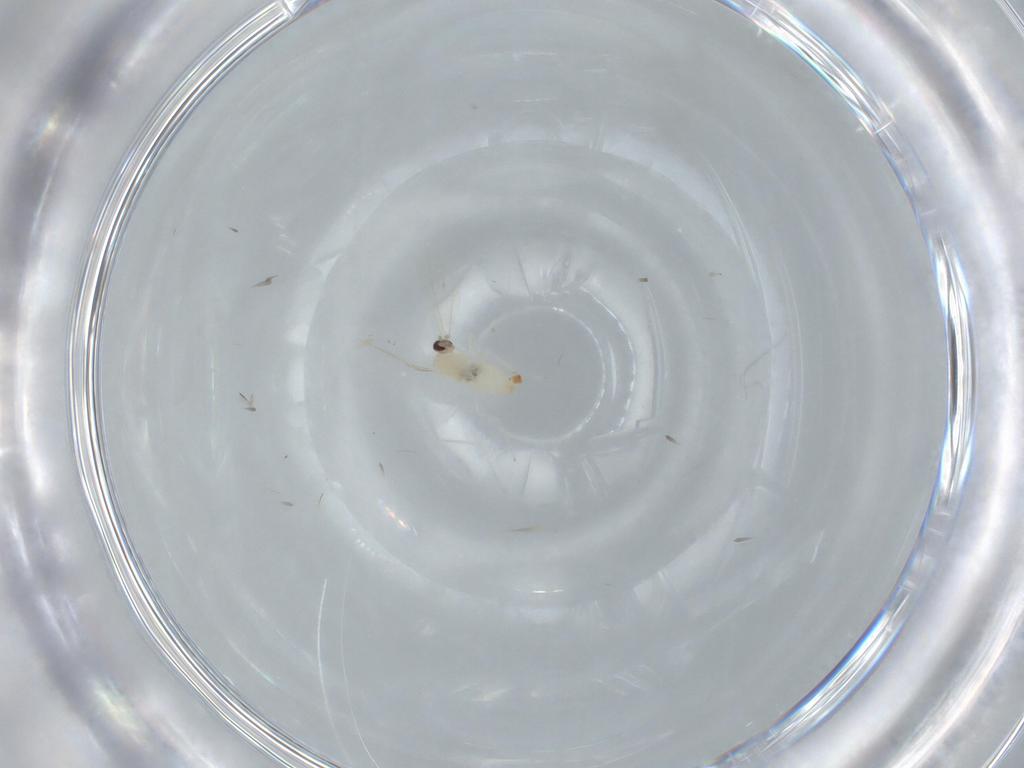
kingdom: Animalia
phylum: Arthropoda
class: Insecta
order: Diptera
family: Cecidomyiidae
